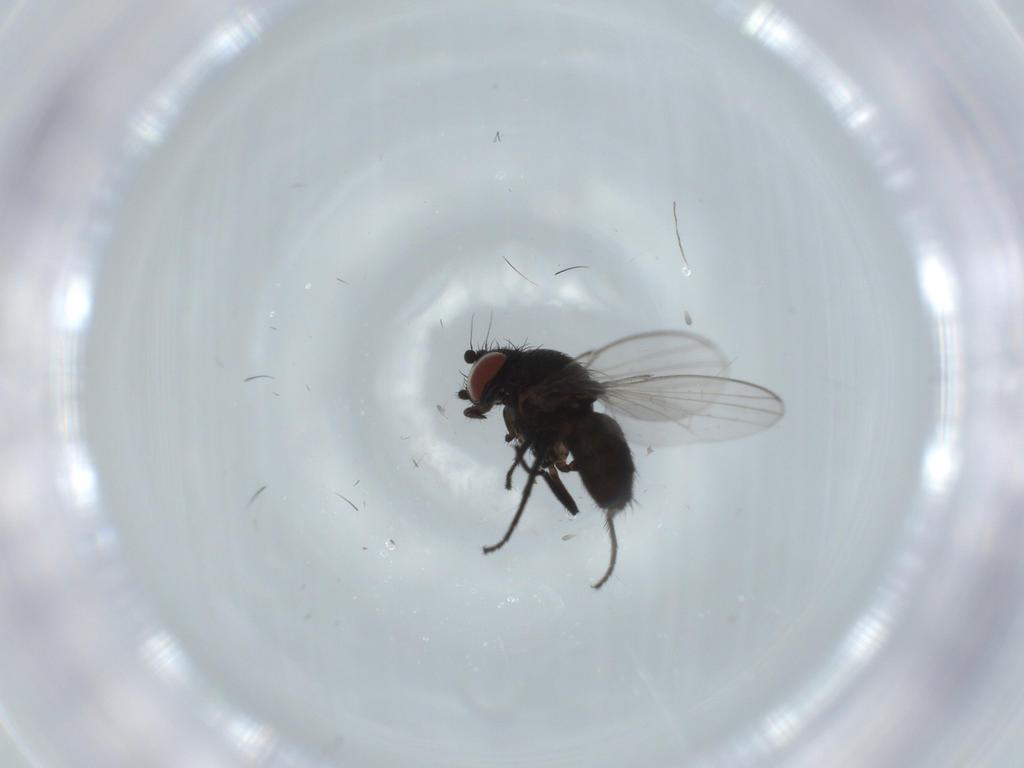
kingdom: Animalia
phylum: Arthropoda
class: Insecta
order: Diptera
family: Milichiidae
